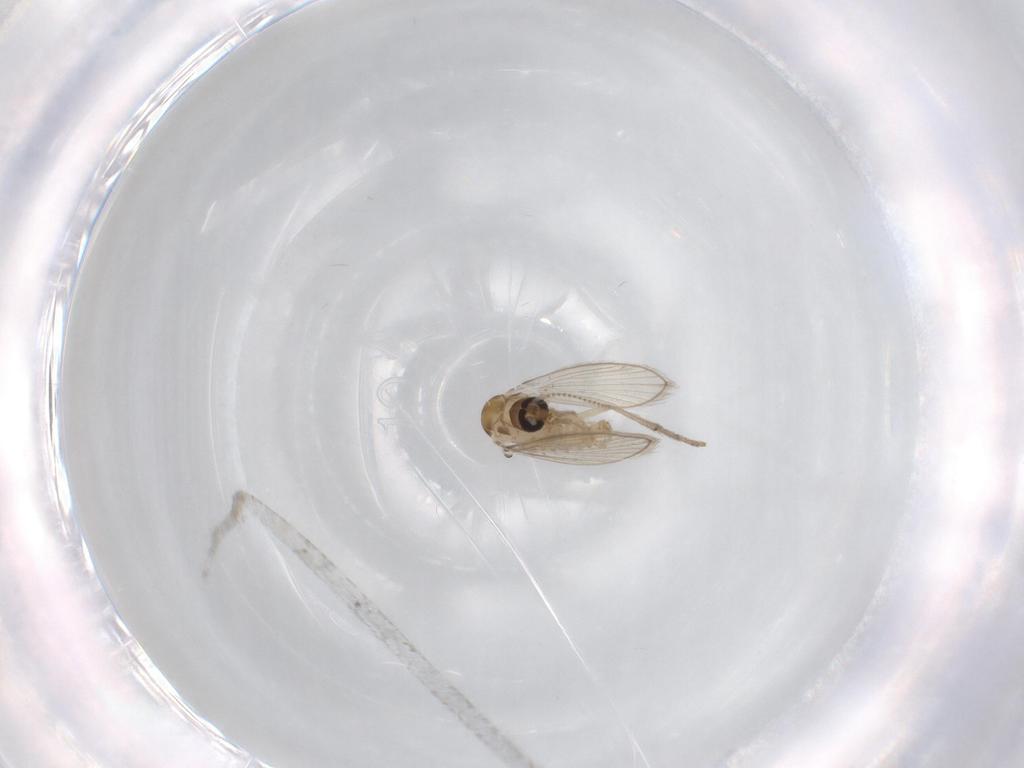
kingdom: Animalia
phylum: Arthropoda
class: Insecta
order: Diptera
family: Psychodidae
